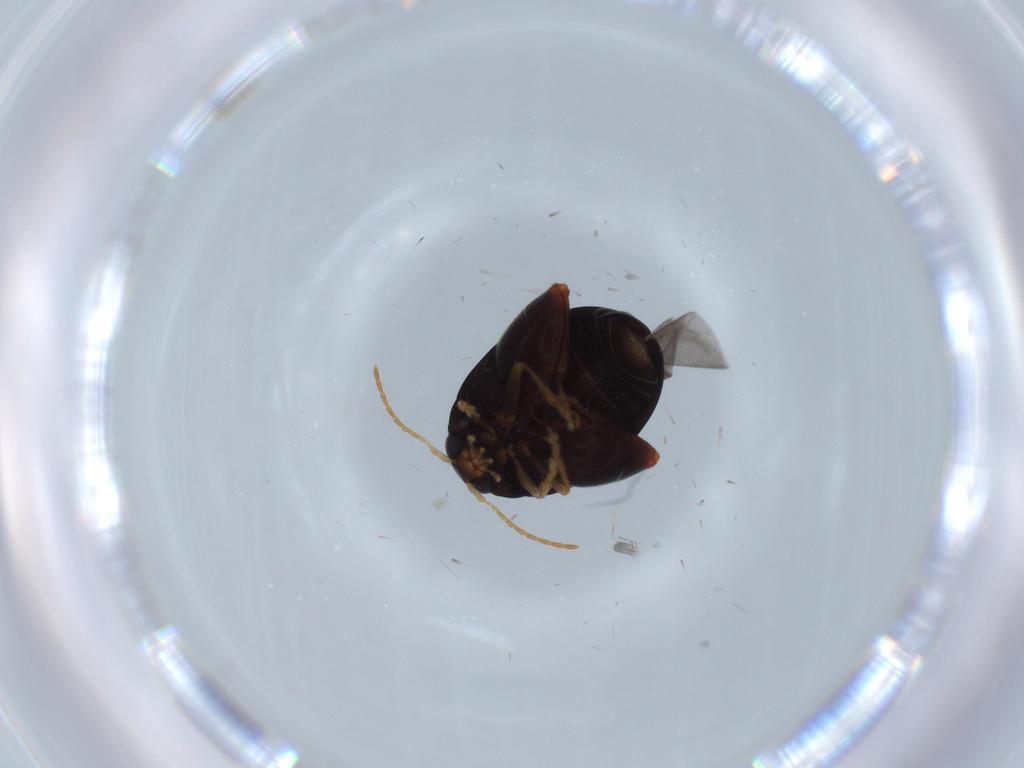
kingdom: Animalia
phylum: Arthropoda
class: Insecta
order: Coleoptera
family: Chrysomelidae
